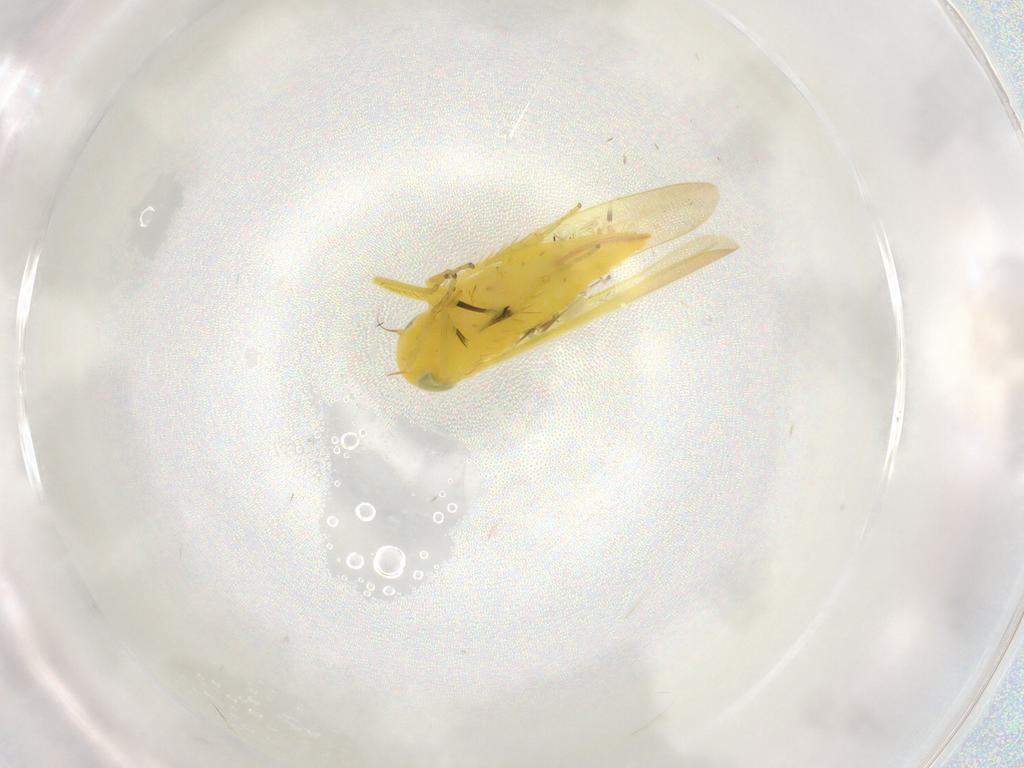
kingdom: Animalia
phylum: Arthropoda
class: Insecta
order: Hemiptera
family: Cicadellidae
